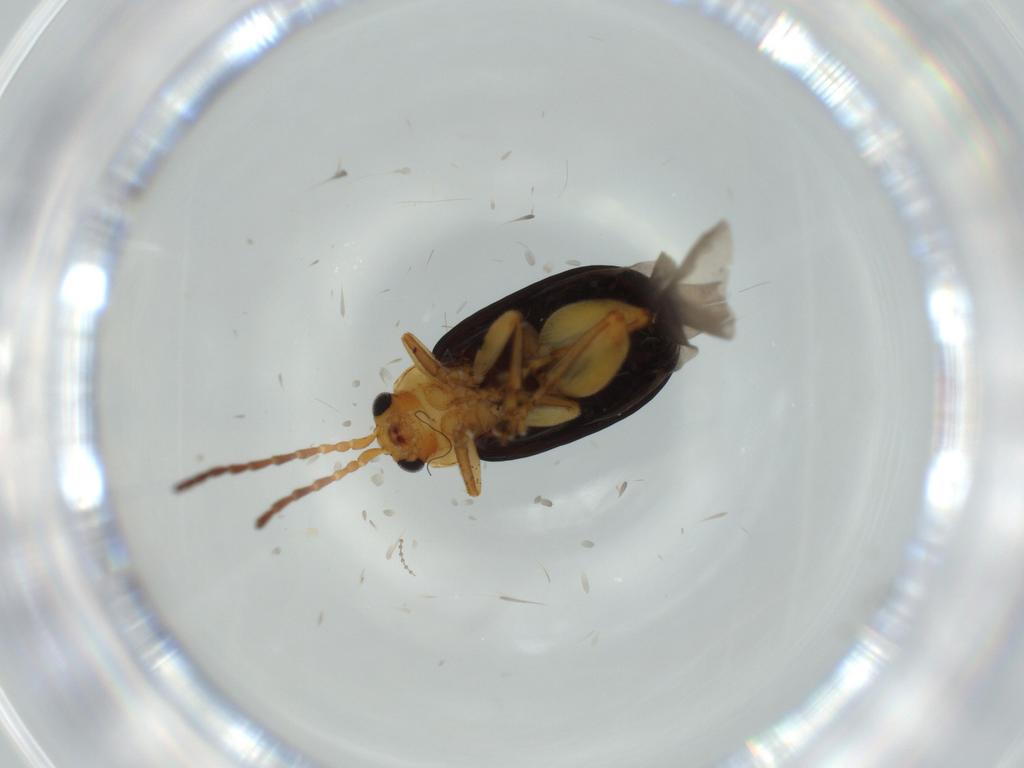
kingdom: Animalia
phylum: Arthropoda
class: Insecta
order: Coleoptera
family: Chrysomelidae
